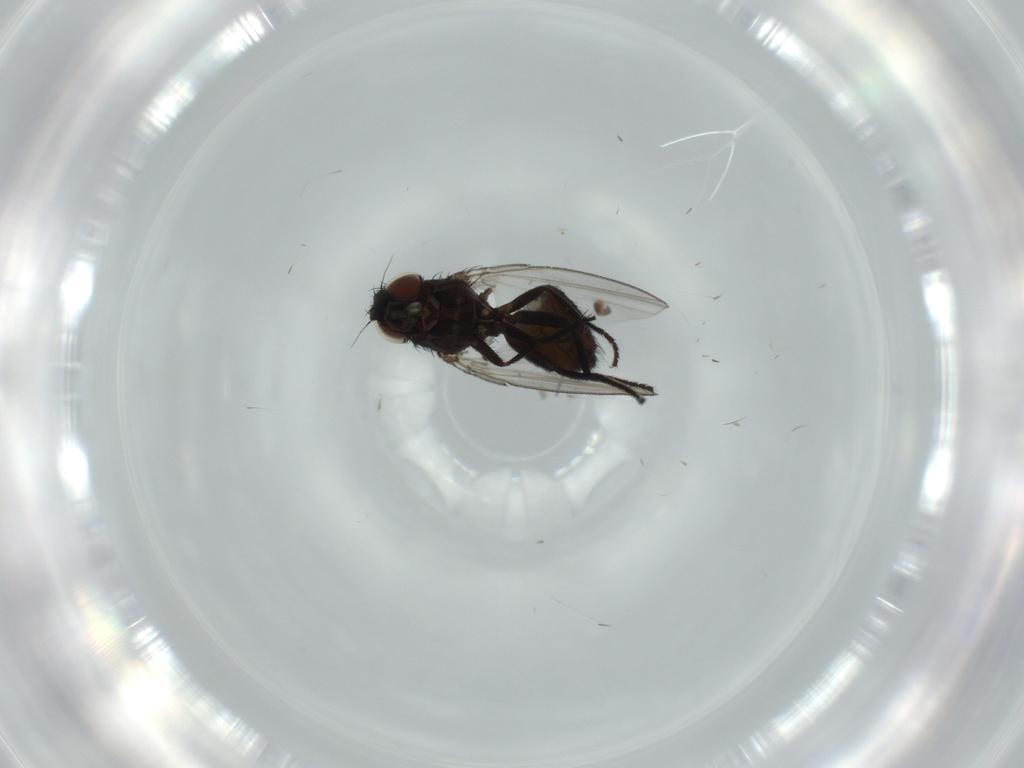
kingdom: Animalia
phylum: Arthropoda
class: Insecta
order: Diptera
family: Milichiidae
